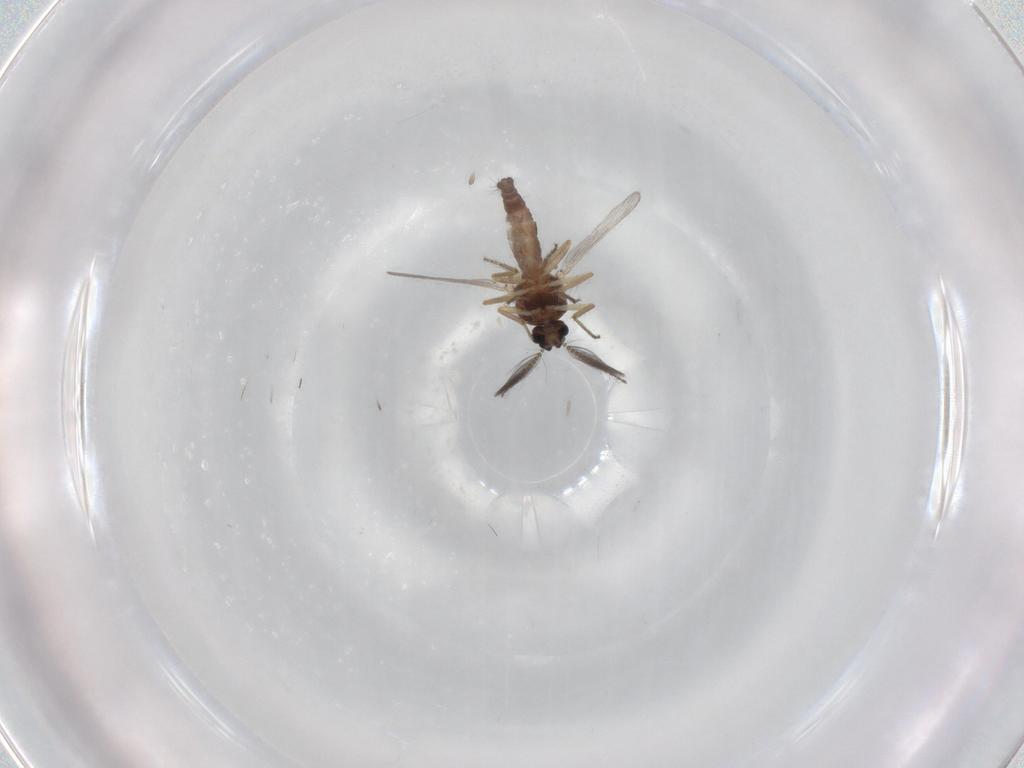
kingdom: Animalia
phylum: Arthropoda
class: Insecta
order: Diptera
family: Ceratopogonidae
